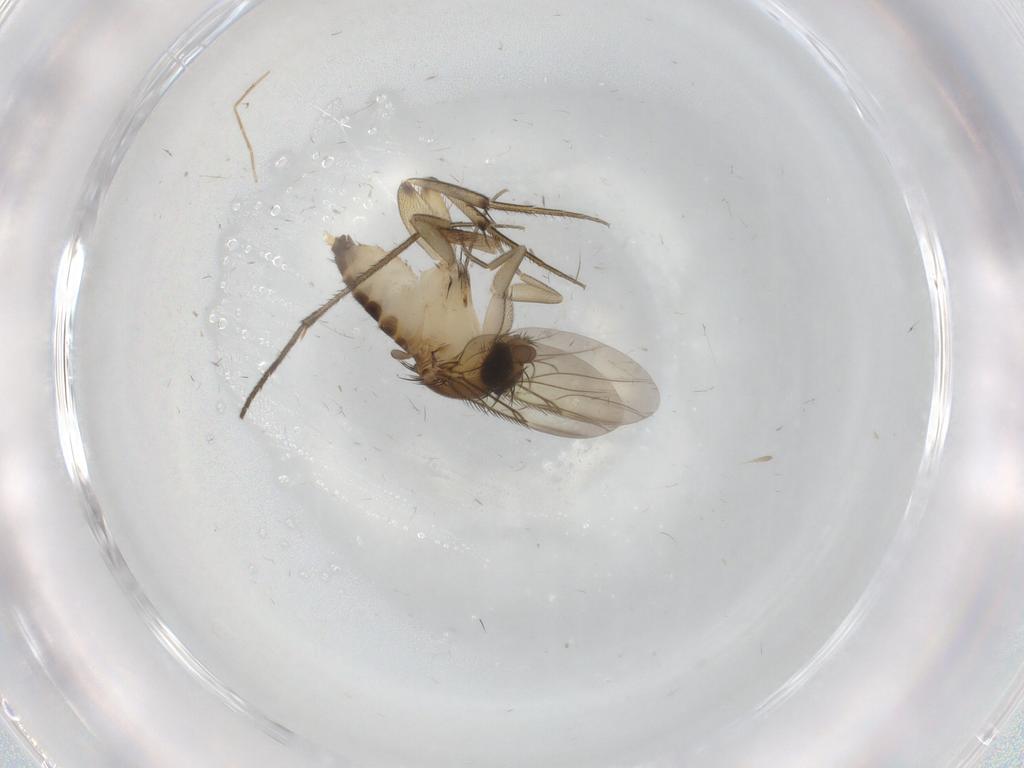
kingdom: Animalia
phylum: Arthropoda
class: Insecta
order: Diptera
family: Phoridae
